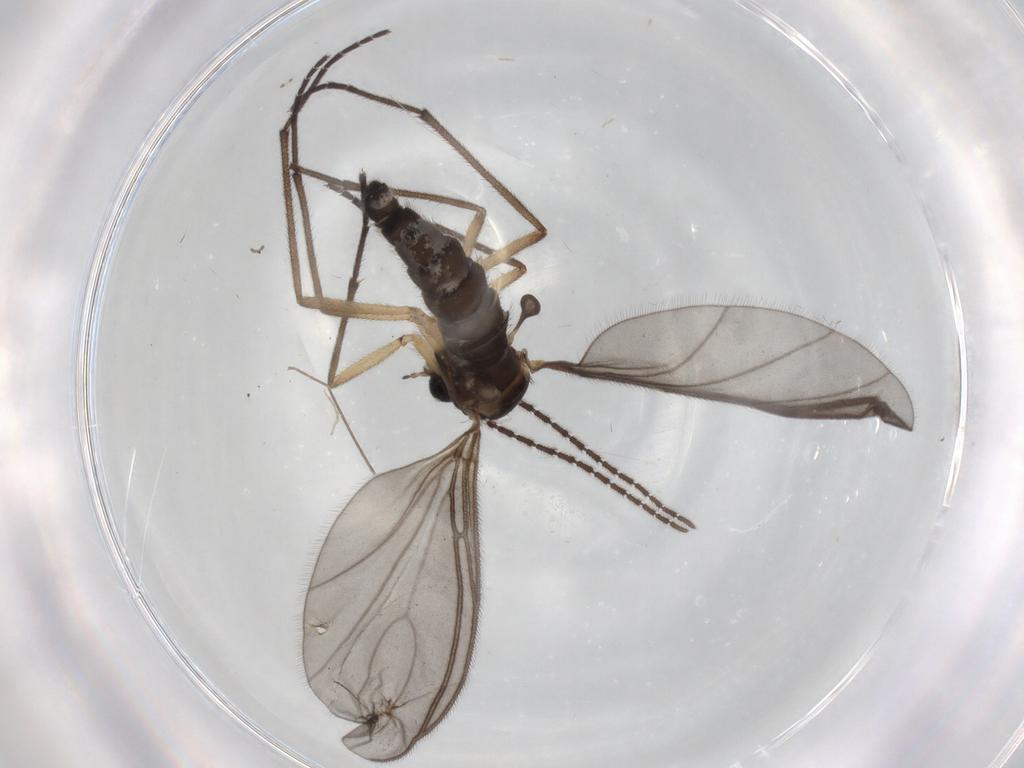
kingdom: Animalia
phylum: Arthropoda
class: Insecta
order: Diptera
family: Sciaridae
